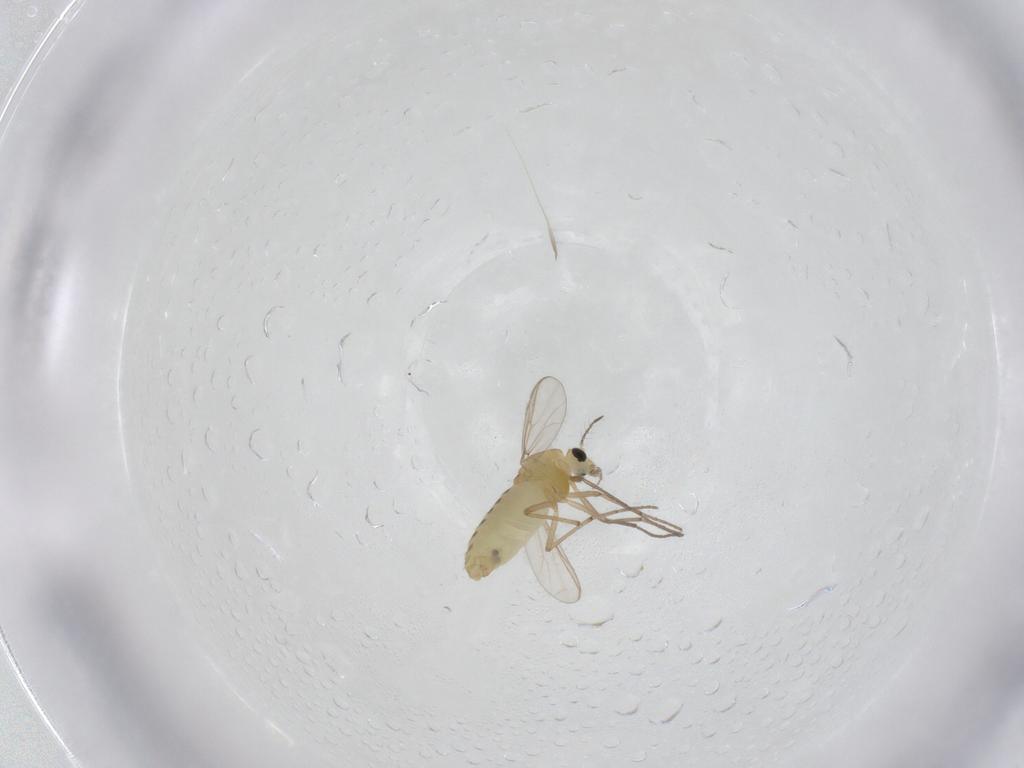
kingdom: Animalia
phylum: Arthropoda
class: Insecta
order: Diptera
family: Chironomidae
